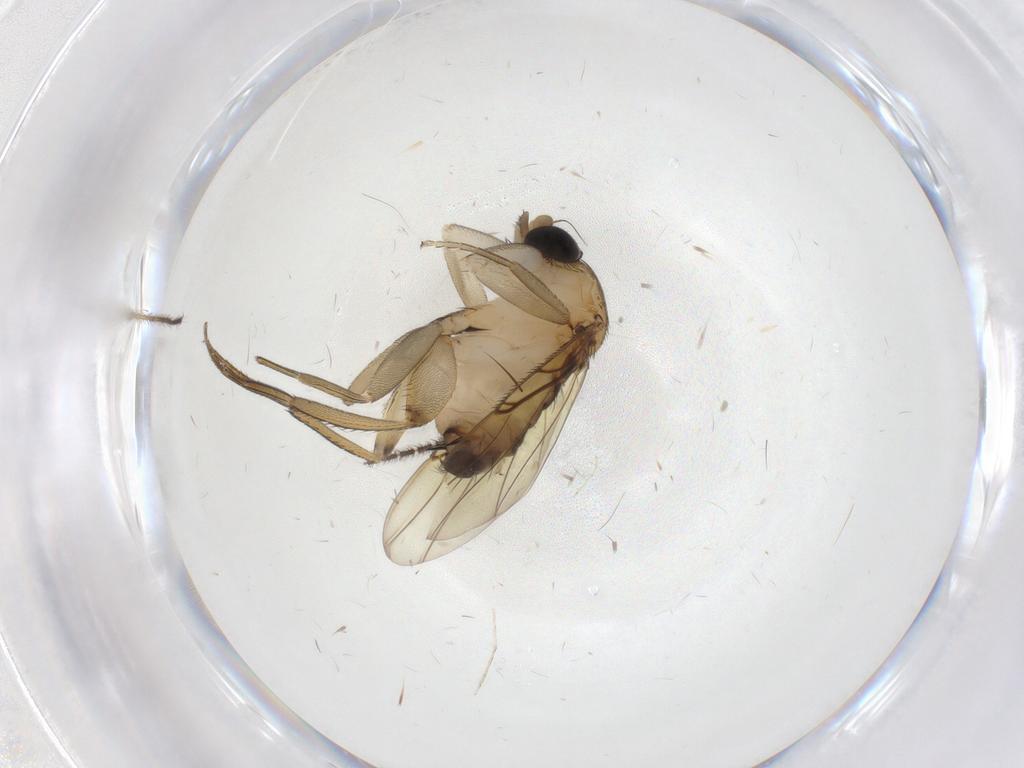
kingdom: Animalia
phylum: Arthropoda
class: Insecta
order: Diptera
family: Phoridae
